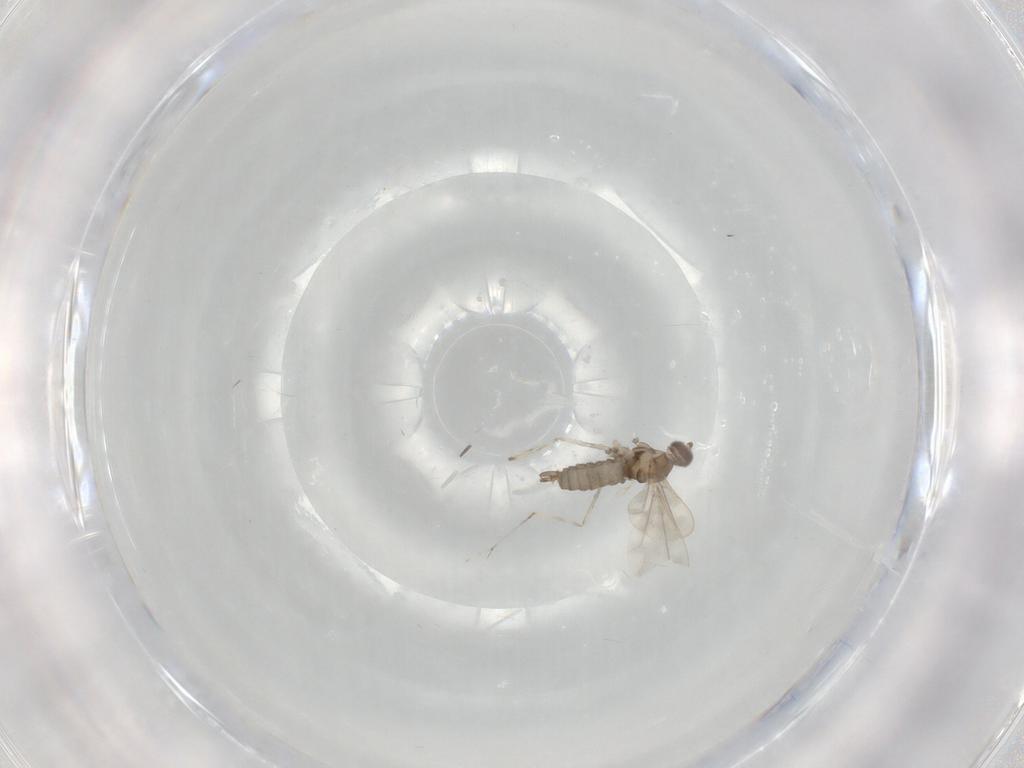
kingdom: Animalia
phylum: Arthropoda
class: Insecta
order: Diptera
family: Cecidomyiidae
